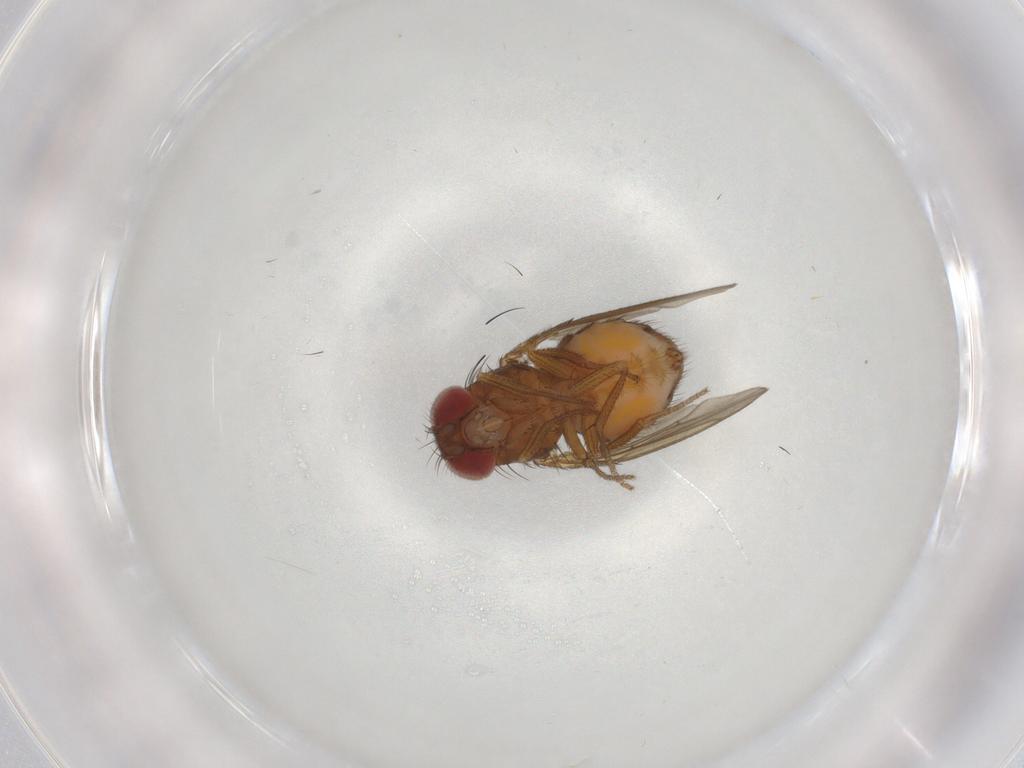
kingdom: Animalia
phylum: Arthropoda
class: Insecta
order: Diptera
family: Drosophilidae
